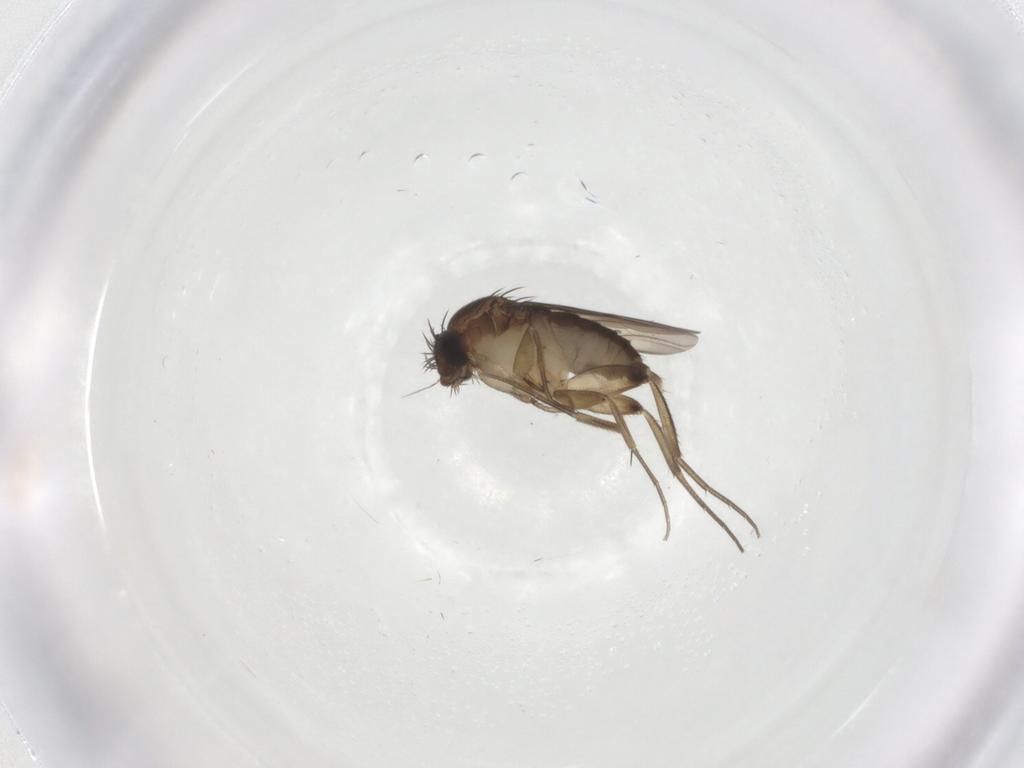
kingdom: Animalia
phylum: Arthropoda
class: Insecta
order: Diptera
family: Phoridae
